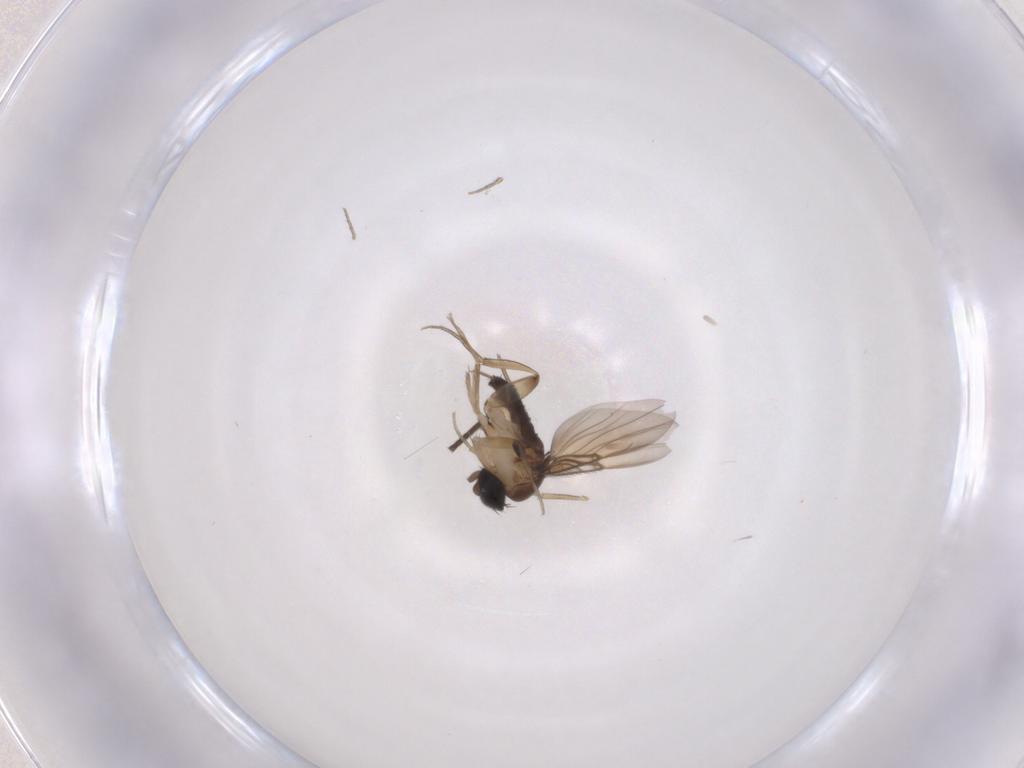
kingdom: Animalia
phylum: Arthropoda
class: Insecta
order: Diptera
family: Phoridae
